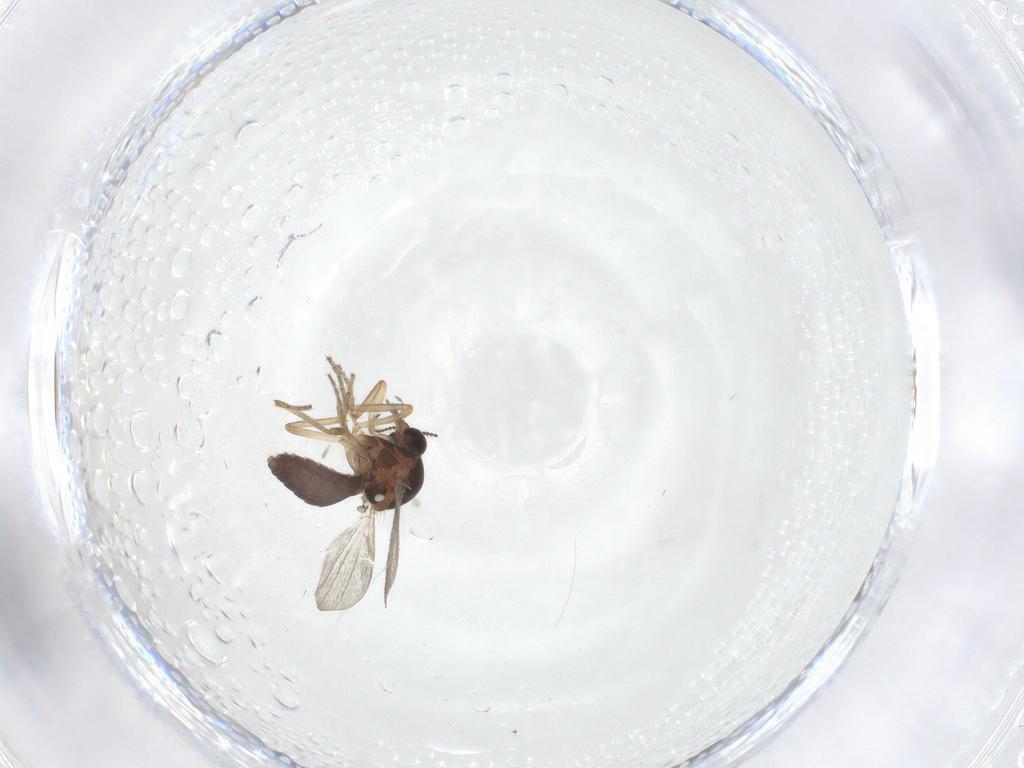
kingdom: Animalia
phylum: Arthropoda
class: Insecta
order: Diptera
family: Ceratopogonidae
